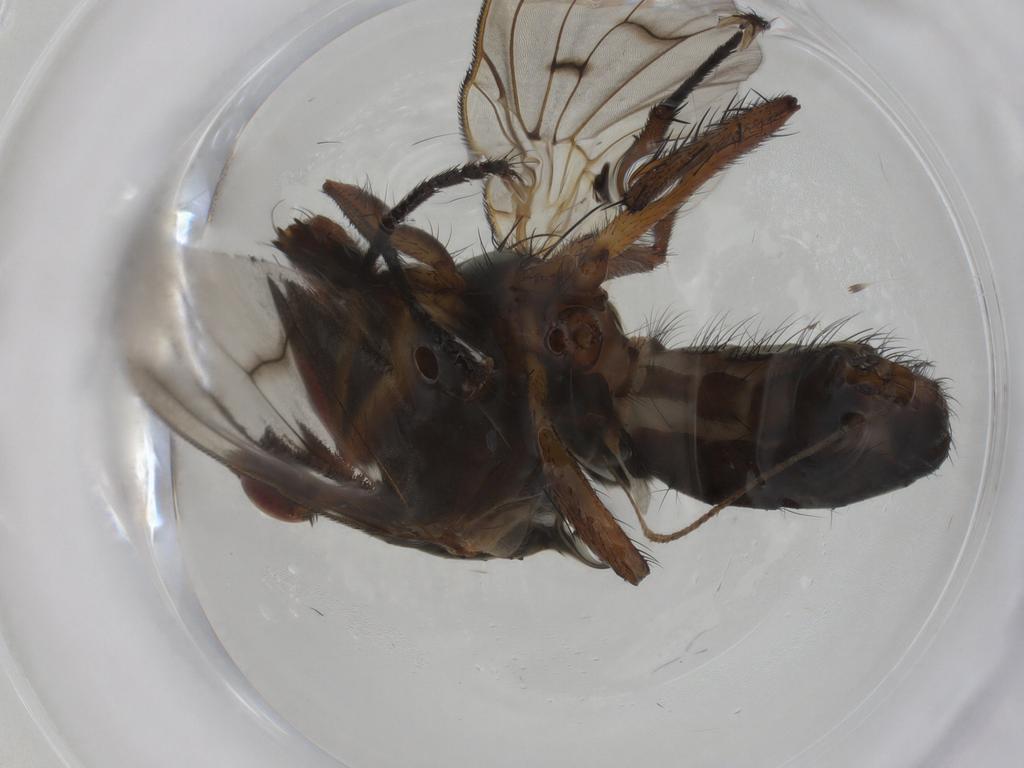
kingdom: Animalia
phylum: Arthropoda
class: Insecta
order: Diptera
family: Anthomyiidae
